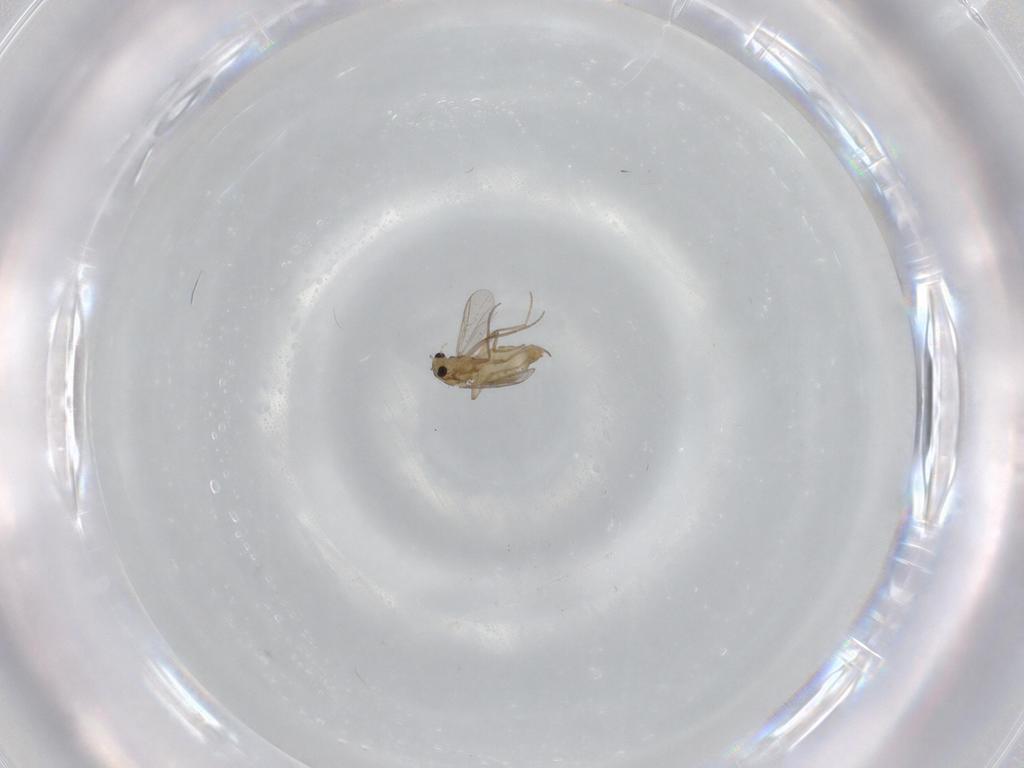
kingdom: Animalia
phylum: Arthropoda
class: Insecta
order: Diptera
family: Chironomidae
